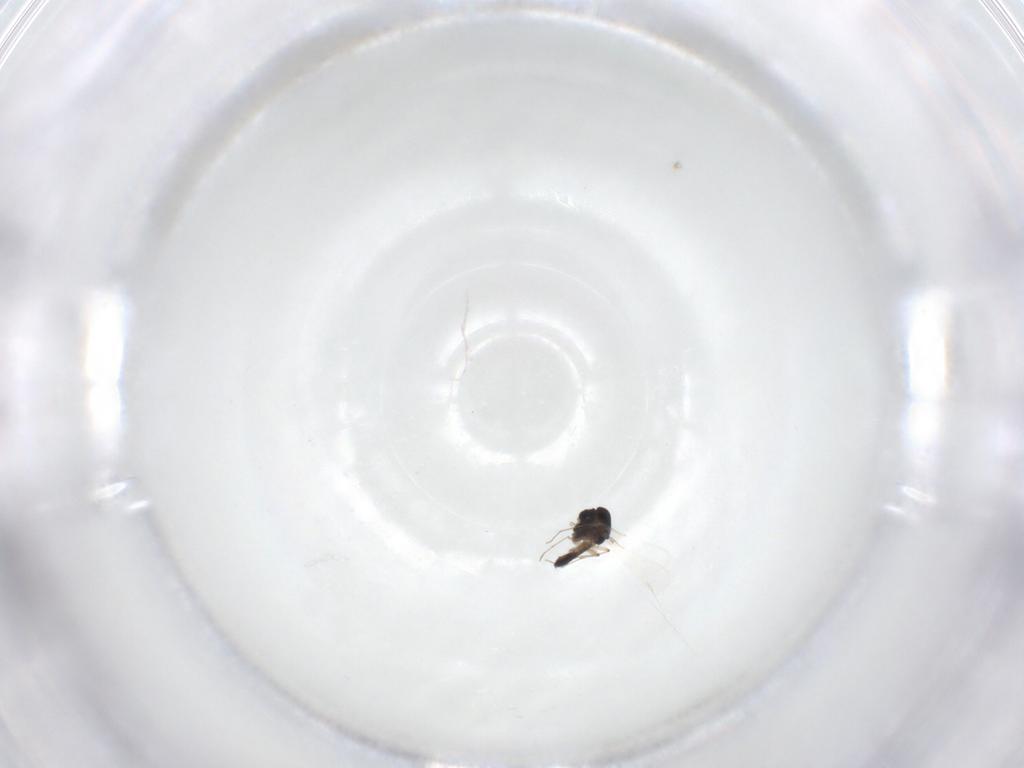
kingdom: Animalia
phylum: Arthropoda
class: Insecta
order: Diptera
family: Chironomidae
